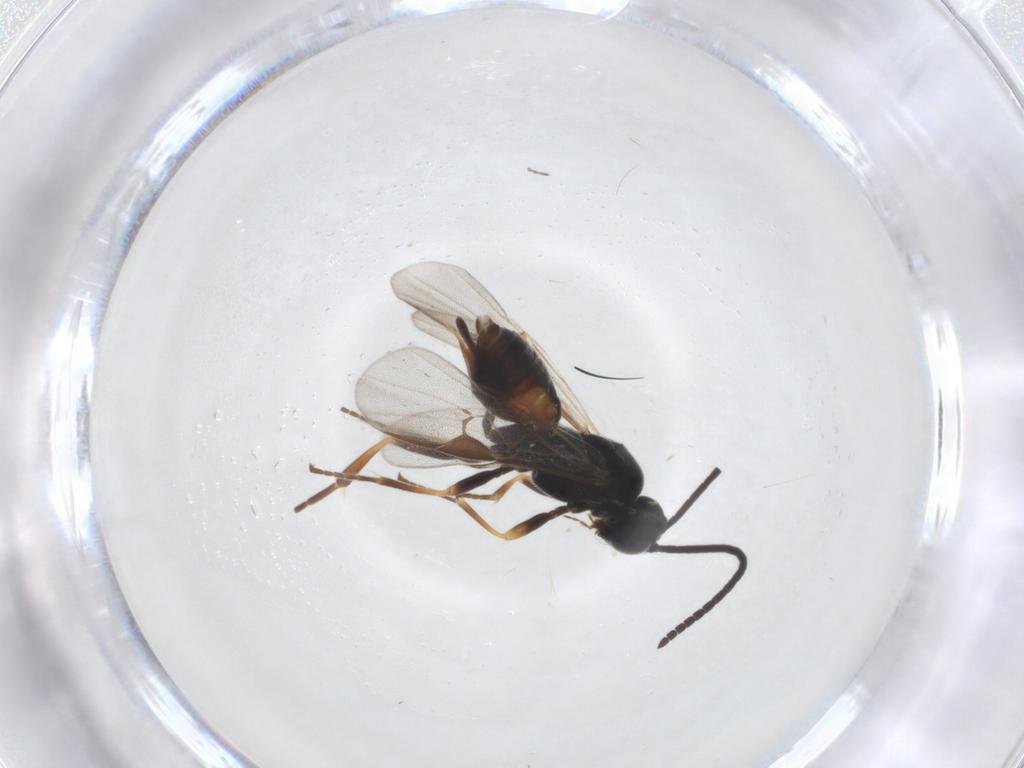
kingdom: Animalia
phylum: Arthropoda
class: Insecta
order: Hymenoptera
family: Braconidae
